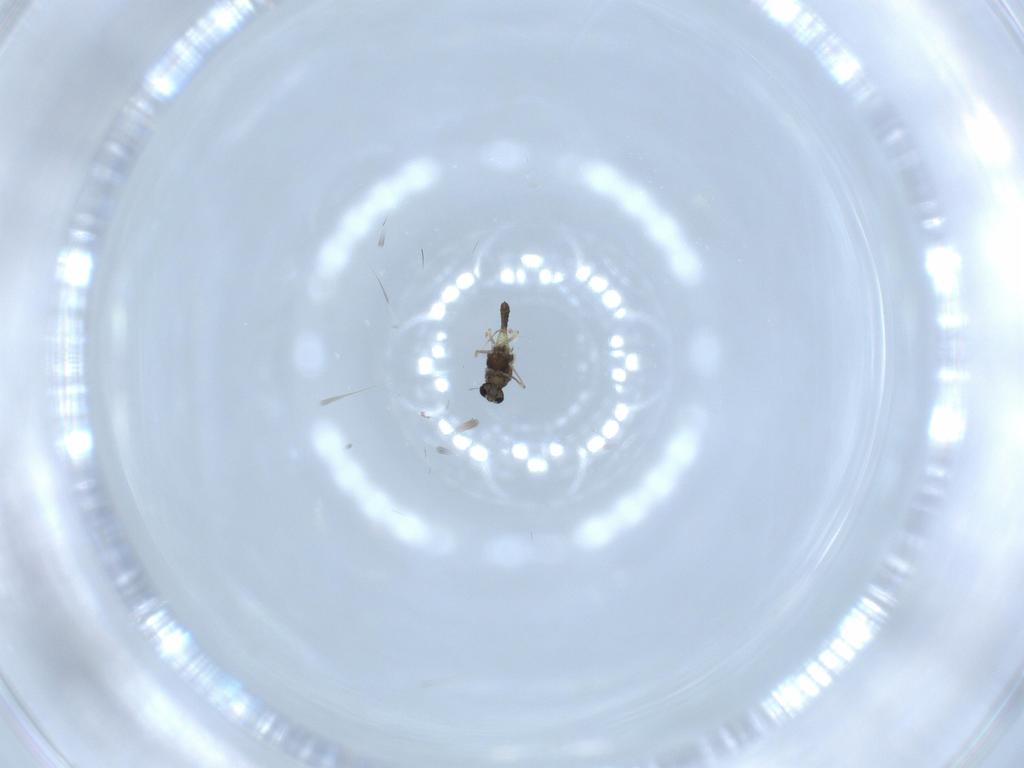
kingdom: Animalia
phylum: Arthropoda
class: Insecta
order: Diptera
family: Chironomidae
